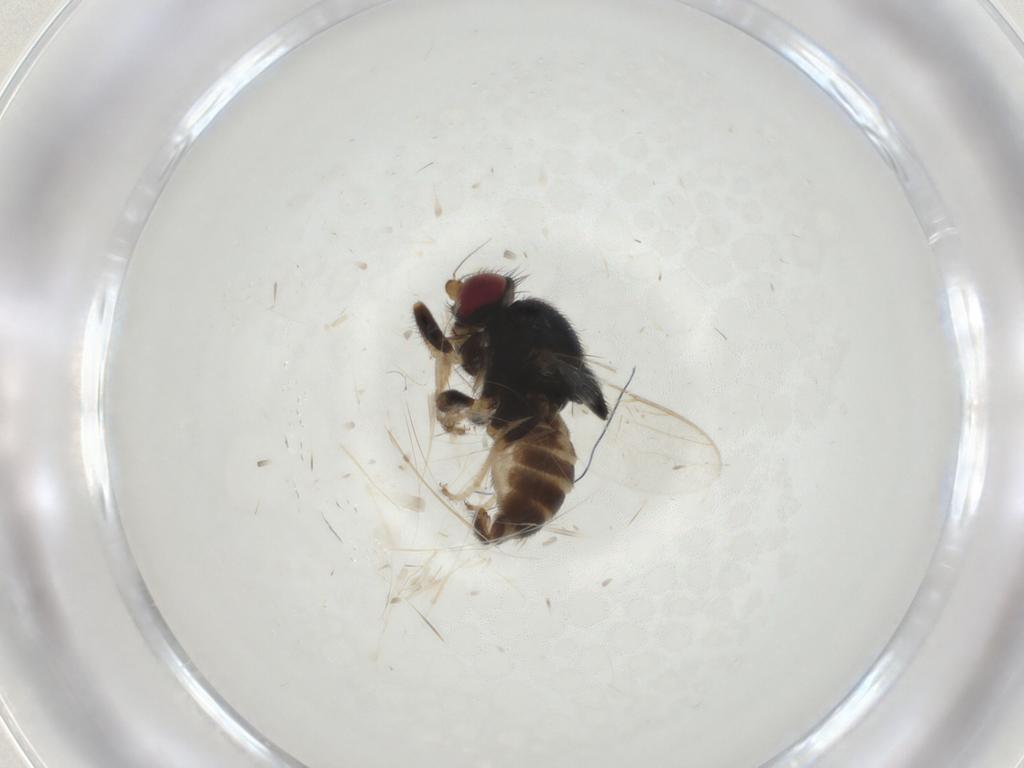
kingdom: Animalia
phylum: Arthropoda
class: Insecta
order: Diptera
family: Chloropidae
